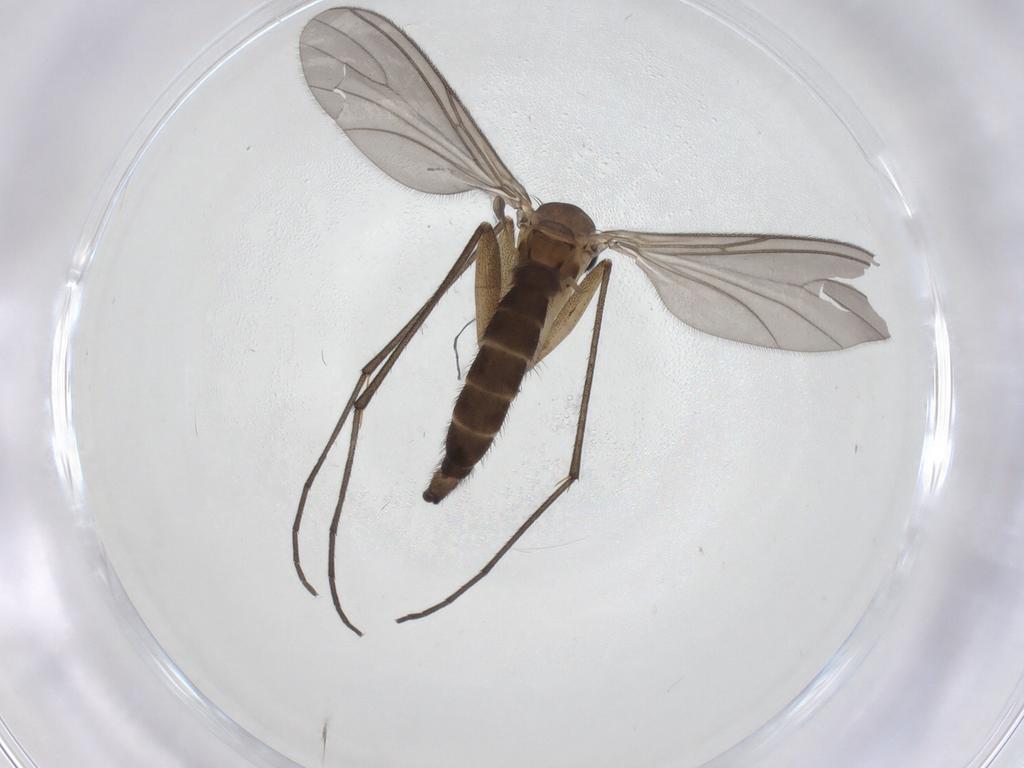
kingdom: Animalia
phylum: Arthropoda
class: Insecta
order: Diptera
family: Sciaridae
